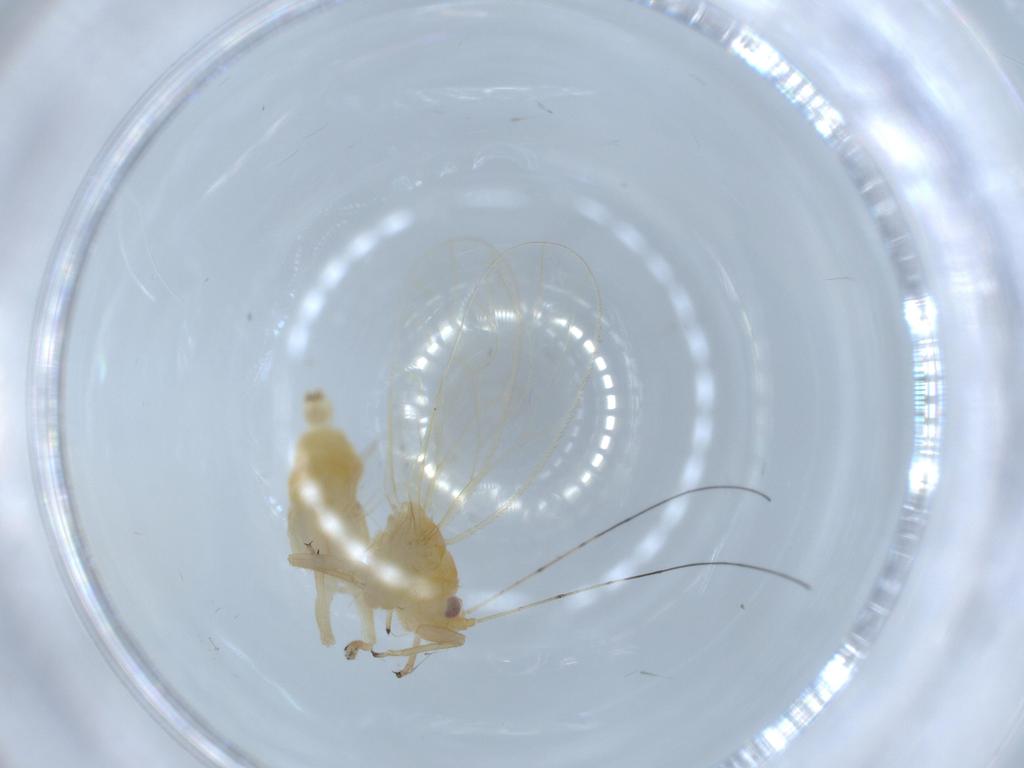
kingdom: Animalia
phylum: Arthropoda
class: Insecta
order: Hemiptera
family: Psyllidae
